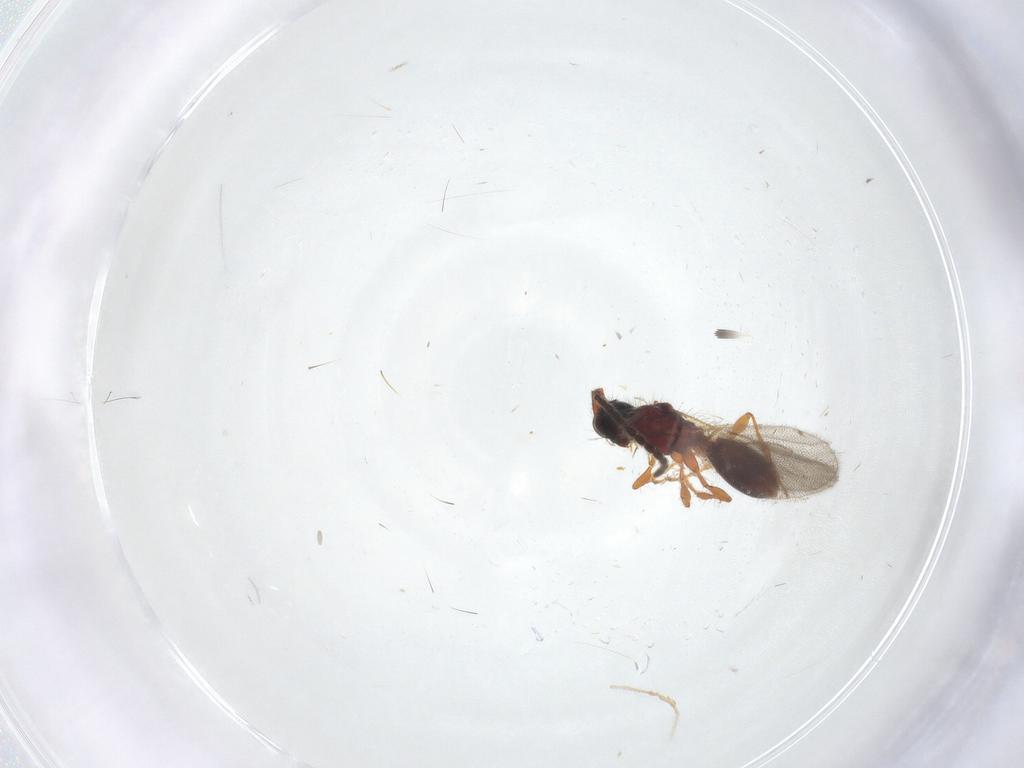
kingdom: Animalia
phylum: Arthropoda
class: Insecta
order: Hymenoptera
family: Diapriidae
